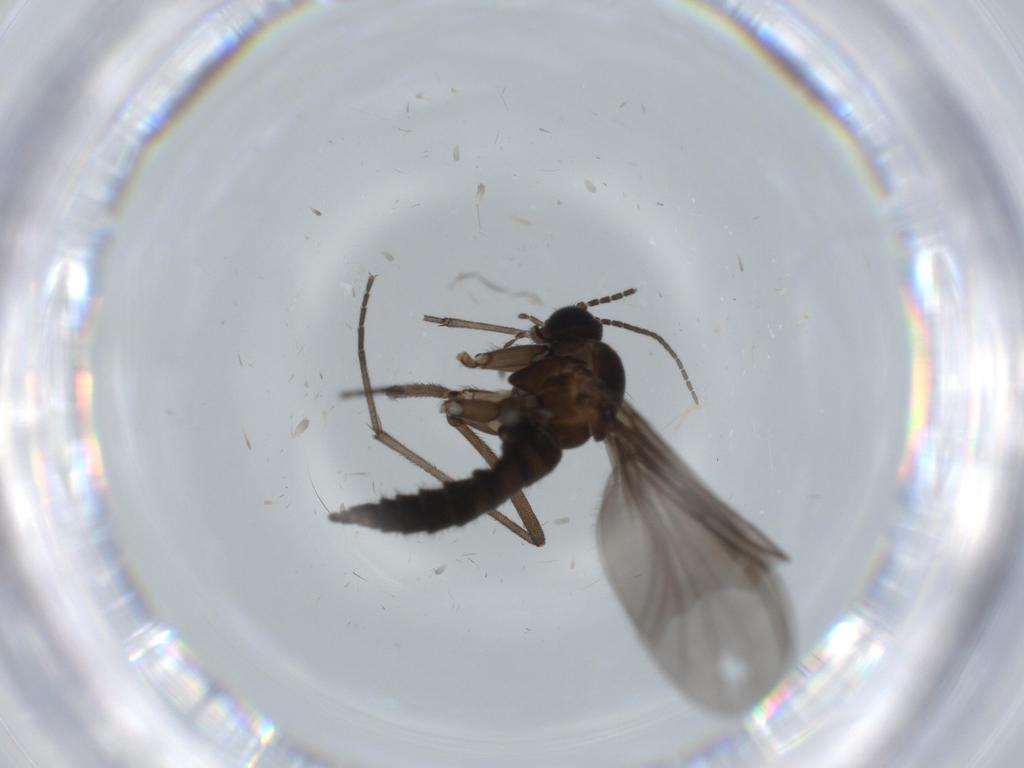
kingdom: Animalia
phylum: Arthropoda
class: Insecta
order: Diptera
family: Sciaridae
